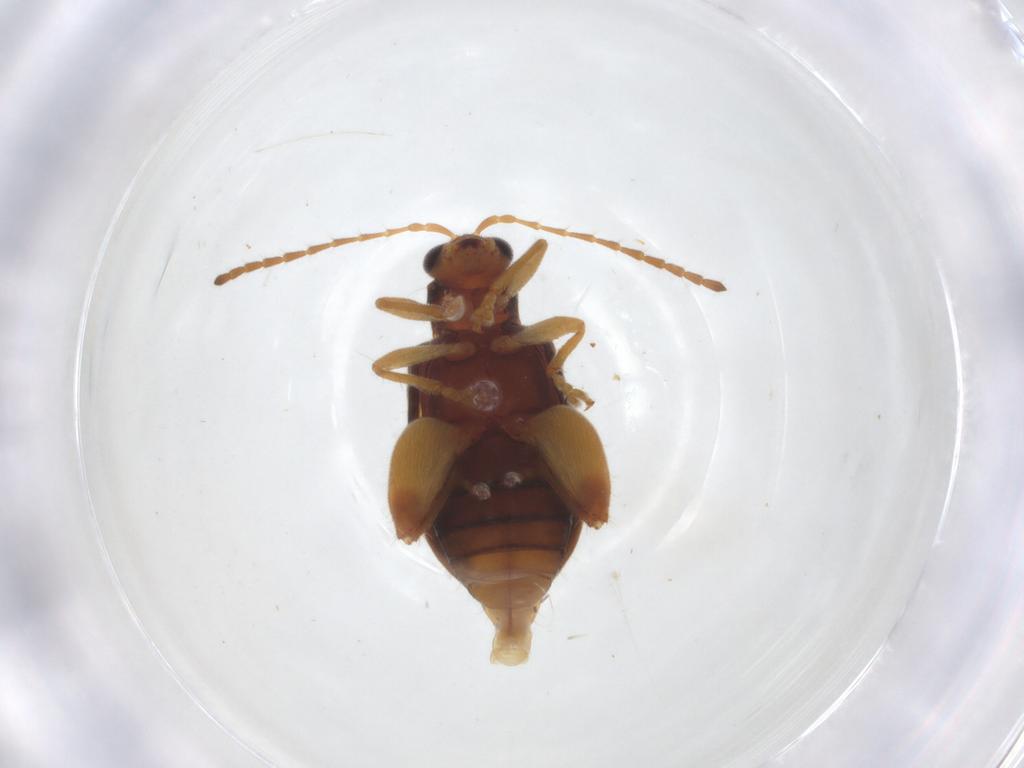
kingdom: Animalia
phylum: Arthropoda
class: Insecta
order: Coleoptera
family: Chrysomelidae
